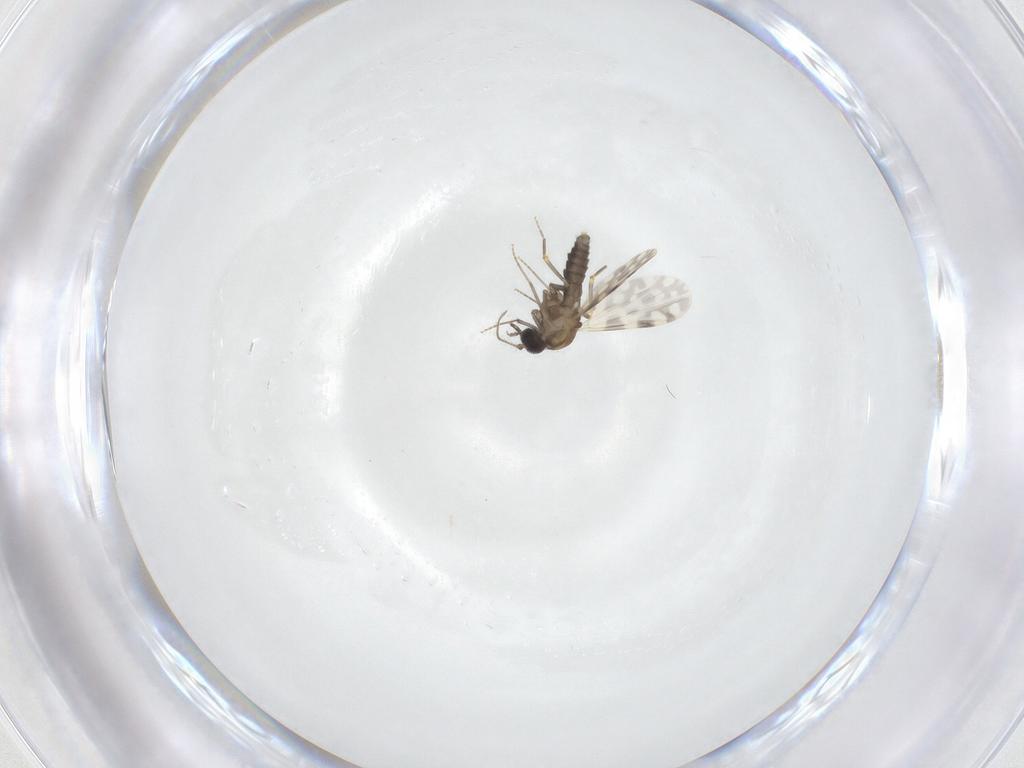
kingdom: Animalia
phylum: Arthropoda
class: Insecta
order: Diptera
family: Ceratopogonidae
